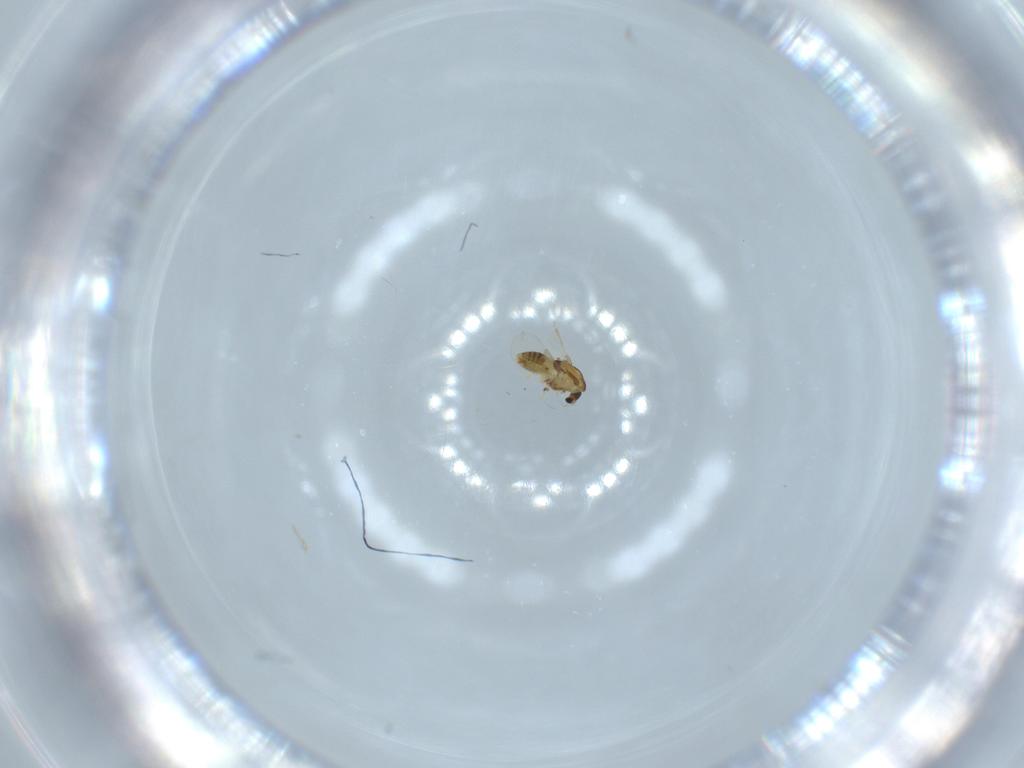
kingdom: Animalia
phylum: Arthropoda
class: Insecta
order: Diptera
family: Chironomidae
